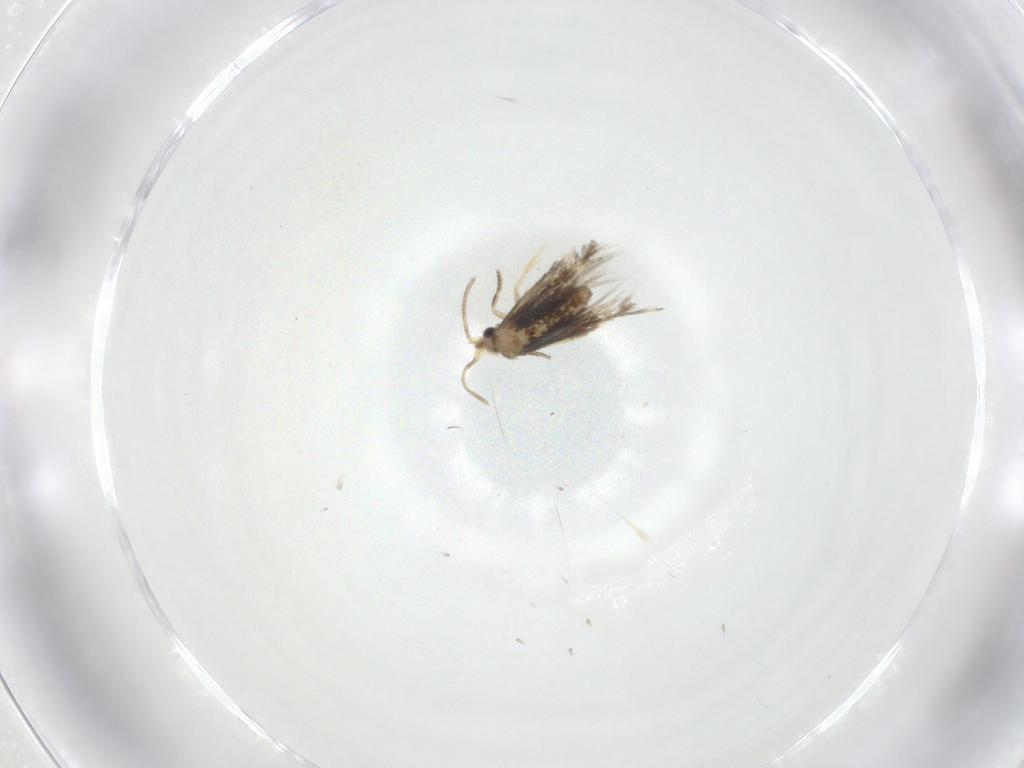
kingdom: Animalia
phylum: Arthropoda
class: Insecta
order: Lepidoptera
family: Nepticulidae
